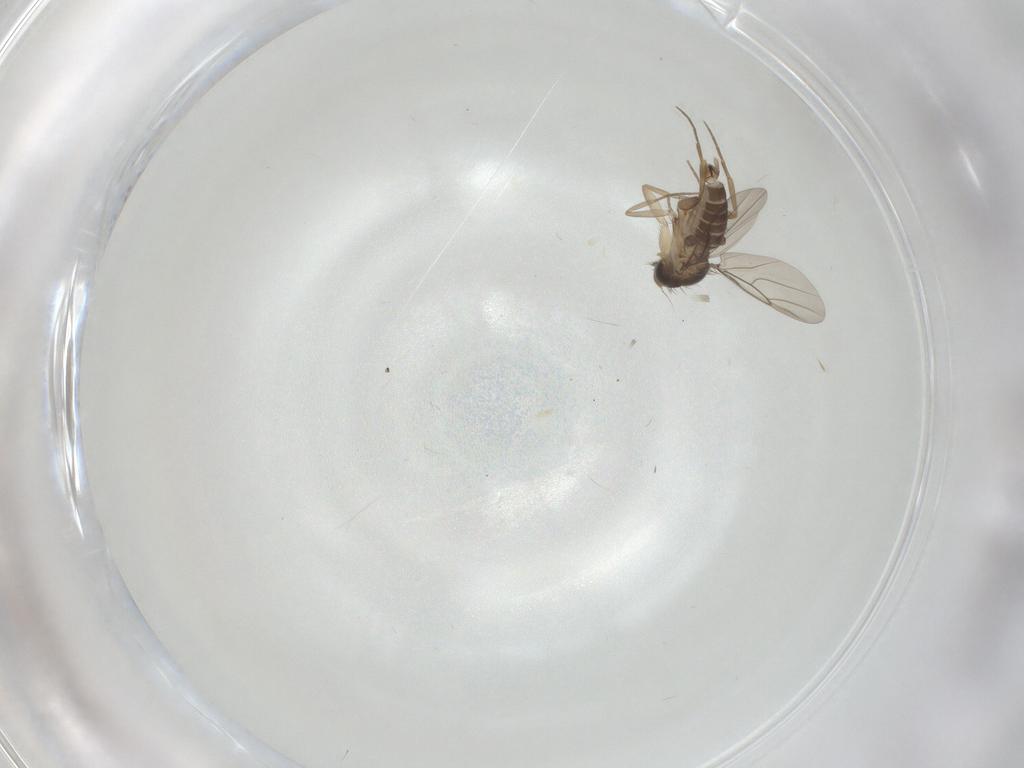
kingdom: Animalia
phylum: Arthropoda
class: Insecta
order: Diptera
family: Phoridae
